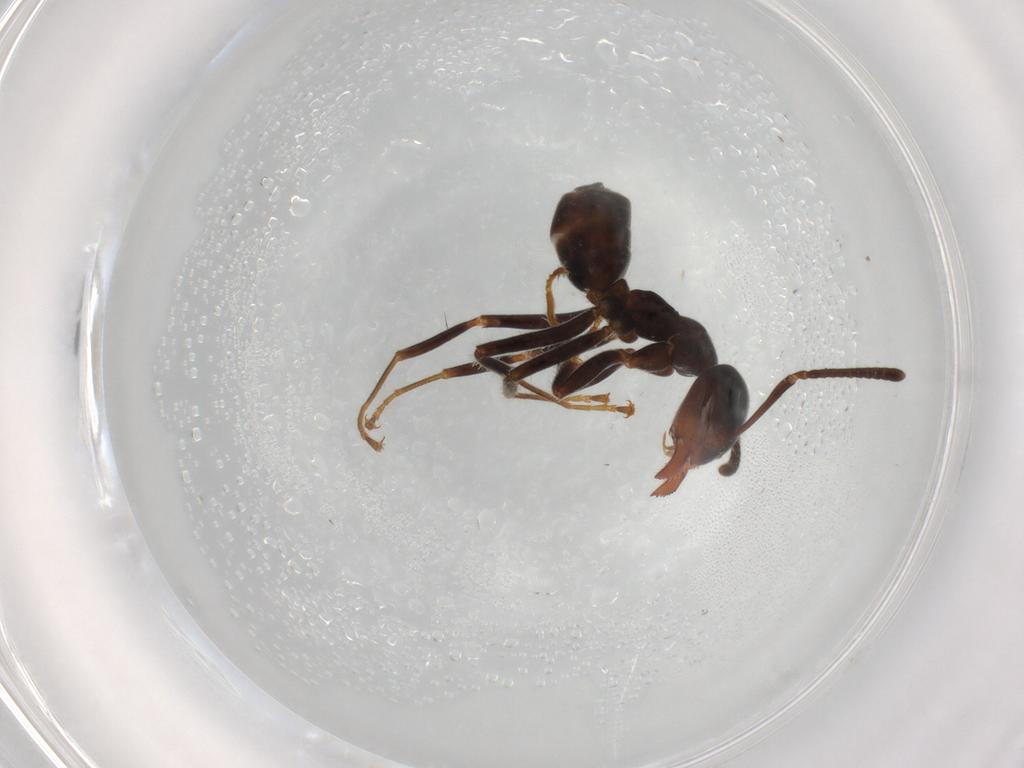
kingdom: Animalia
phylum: Arthropoda
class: Insecta
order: Hymenoptera
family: Formicidae
